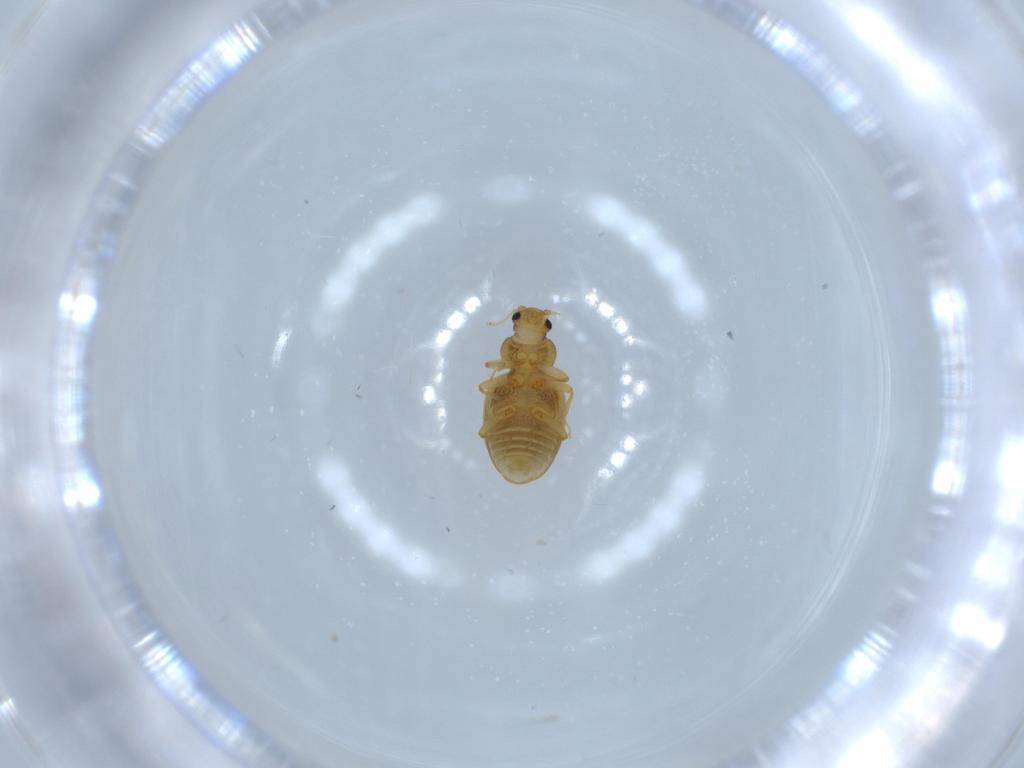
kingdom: Animalia
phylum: Arthropoda
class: Insecta
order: Coleoptera
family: Latridiidae
